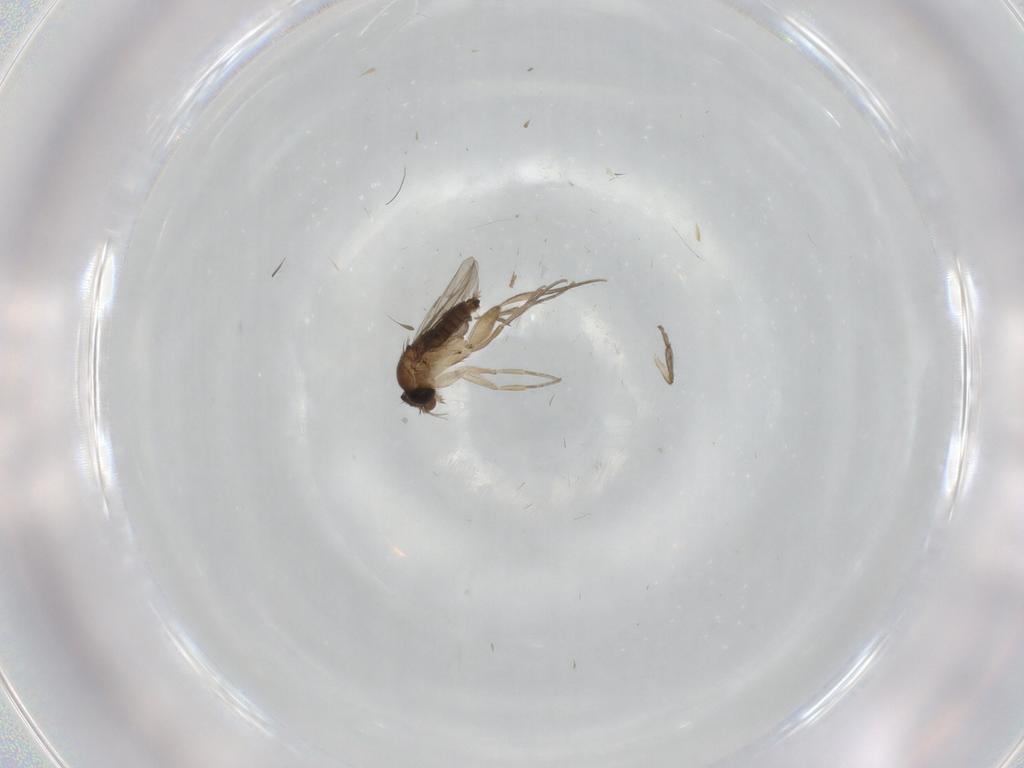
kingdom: Animalia
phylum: Arthropoda
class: Insecta
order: Diptera
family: Phoridae
